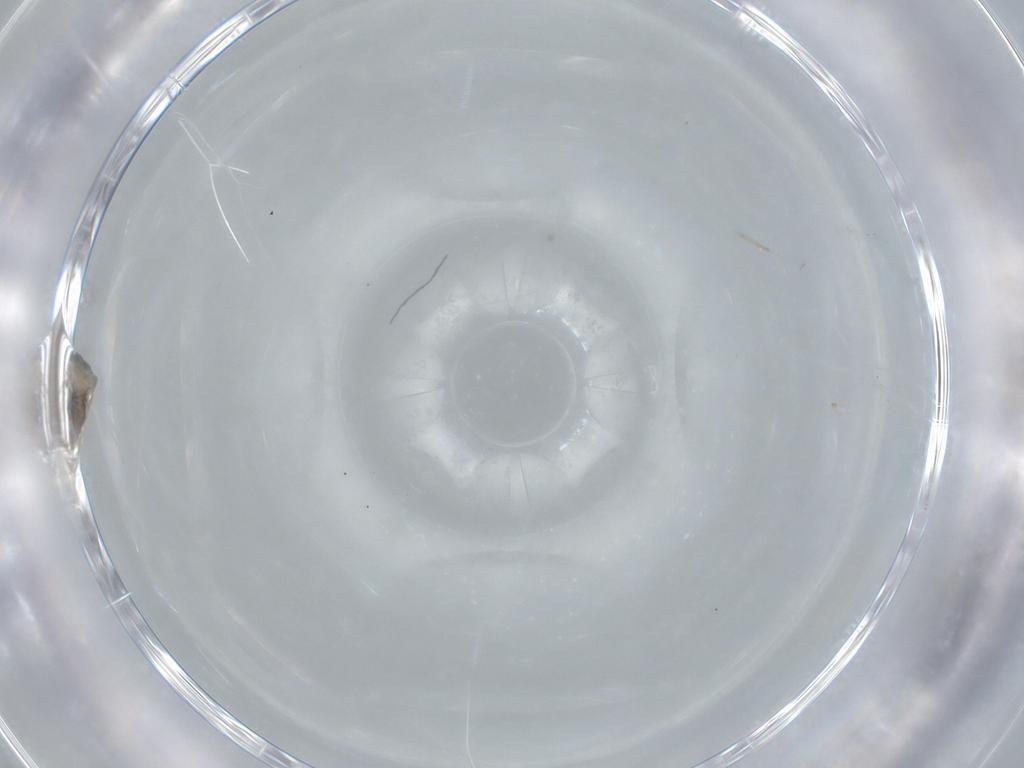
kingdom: Animalia
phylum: Arthropoda
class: Insecta
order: Diptera
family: Cecidomyiidae
